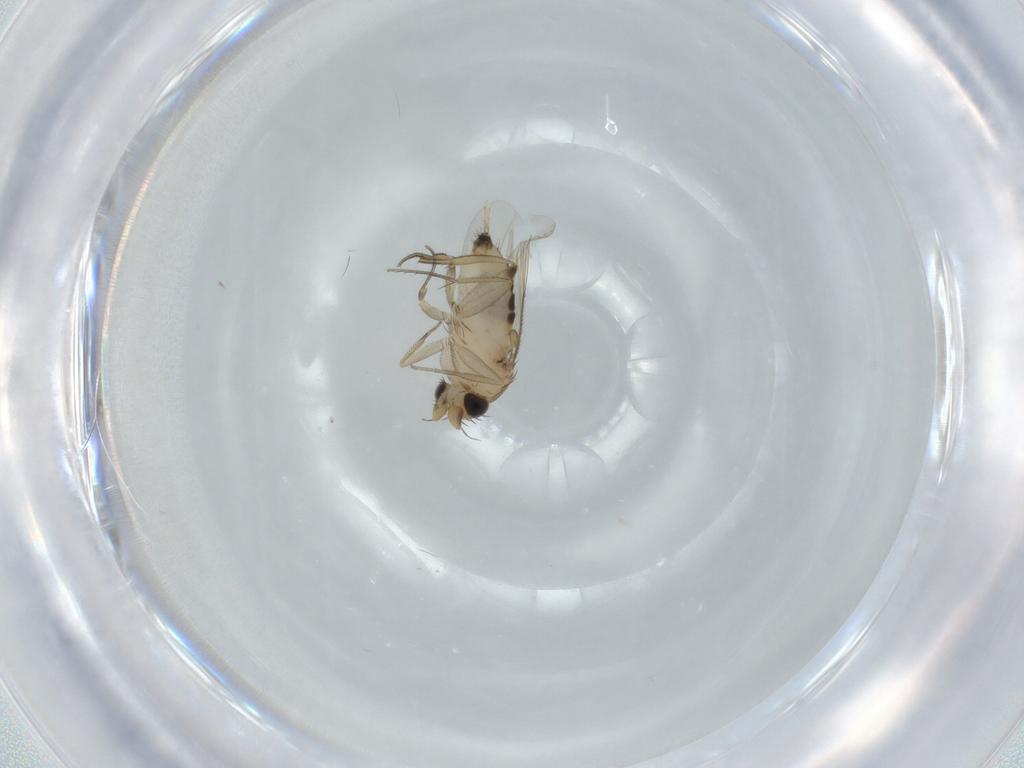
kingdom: Animalia
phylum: Arthropoda
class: Insecta
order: Diptera
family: Phoridae
